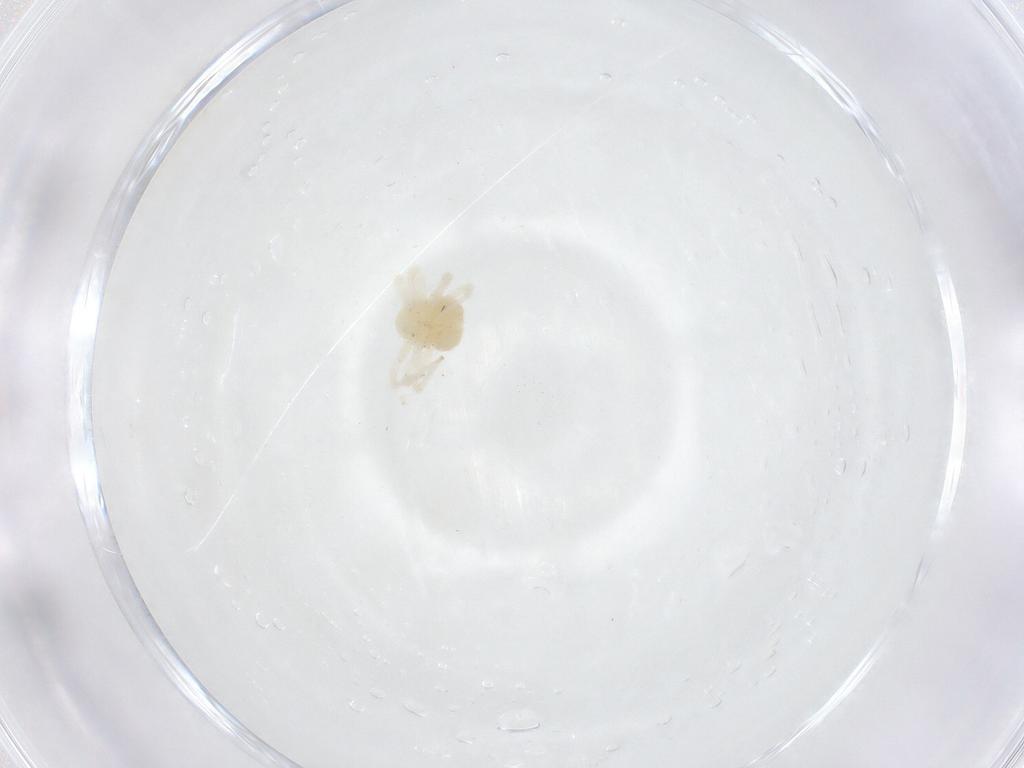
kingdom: Animalia
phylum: Arthropoda
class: Arachnida
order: Trombidiformes
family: Anystidae
